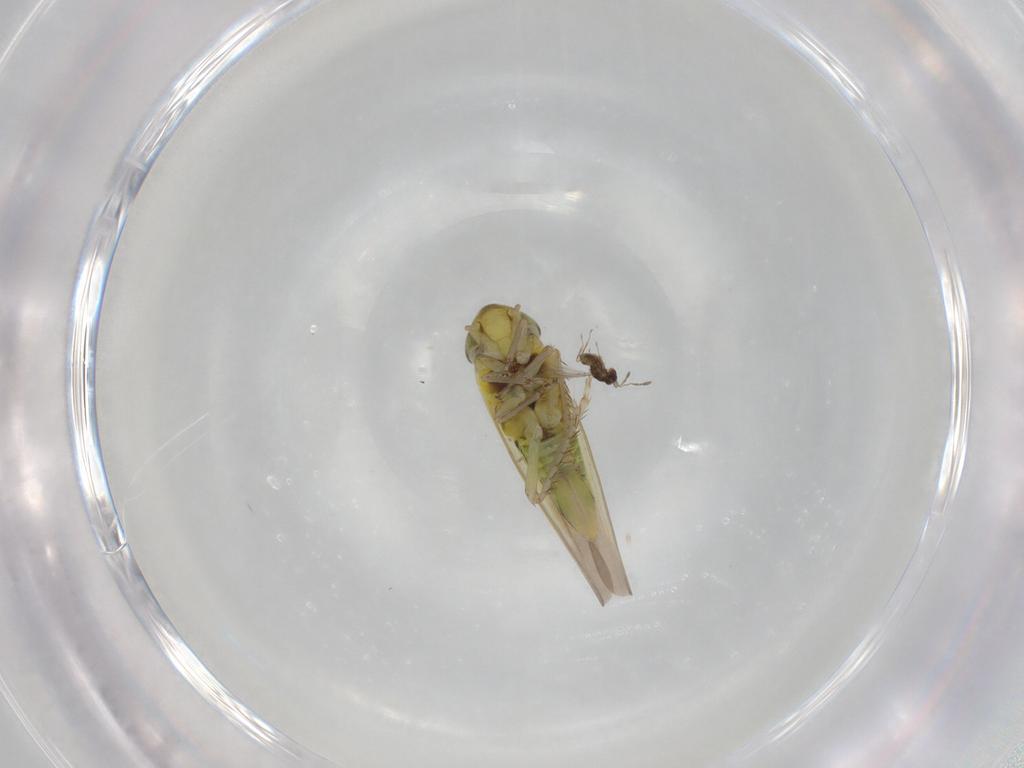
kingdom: Animalia
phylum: Arthropoda
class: Insecta
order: Hemiptera
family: Cicadellidae
